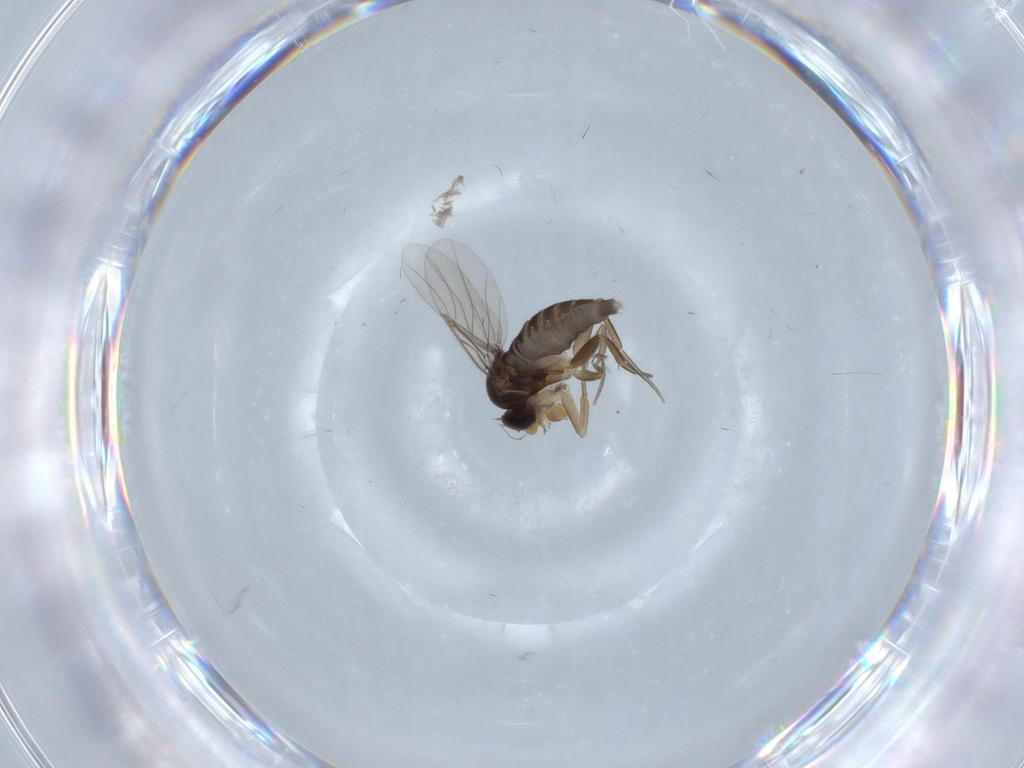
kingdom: Animalia
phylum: Arthropoda
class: Insecta
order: Diptera
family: Phoridae
